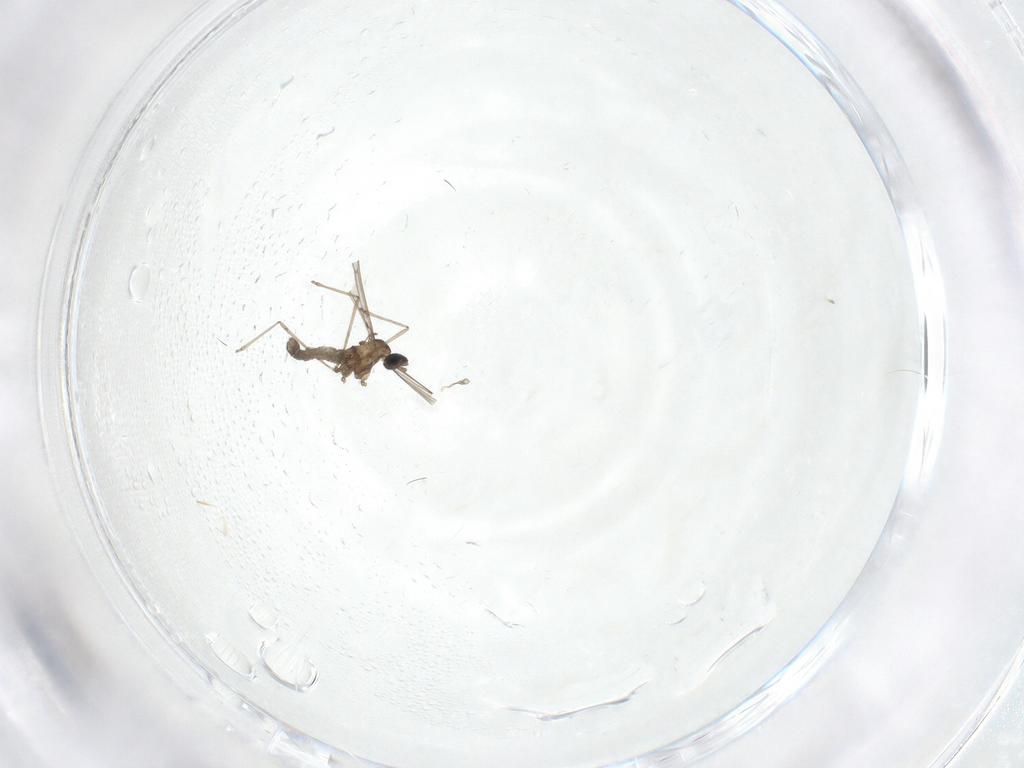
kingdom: Animalia
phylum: Arthropoda
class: Insecta
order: Diptera
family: Cecidomyiidae
